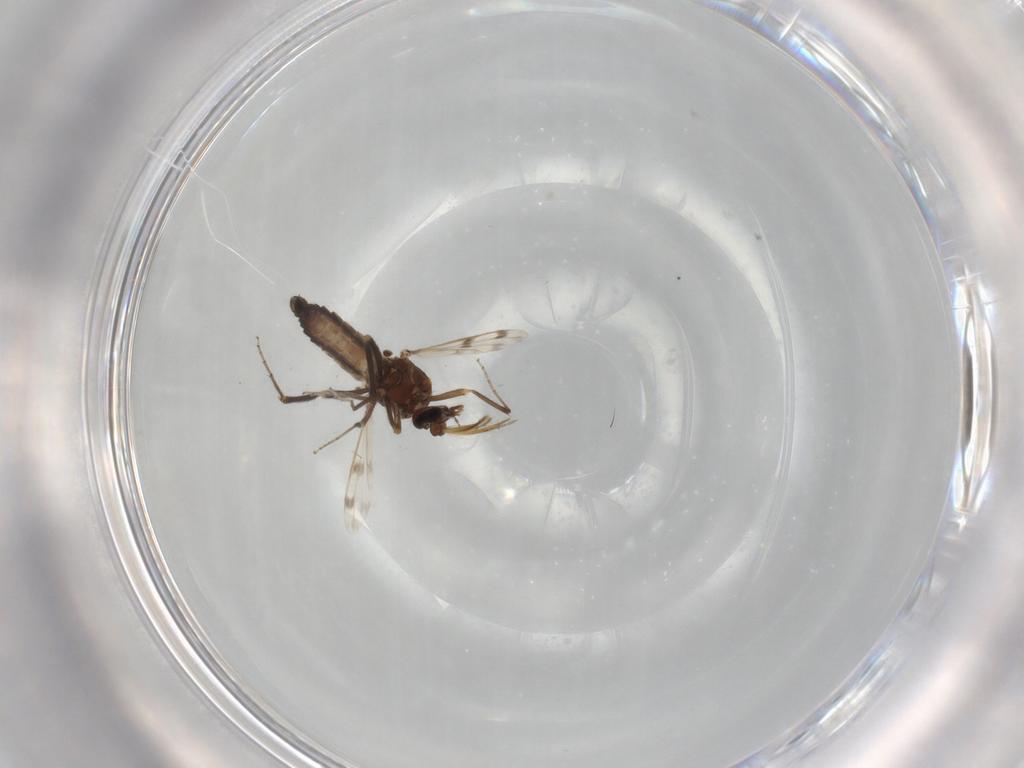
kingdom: Animalia
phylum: Arthropoda
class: Insecta
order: Diptera
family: Ceratopogonidae
